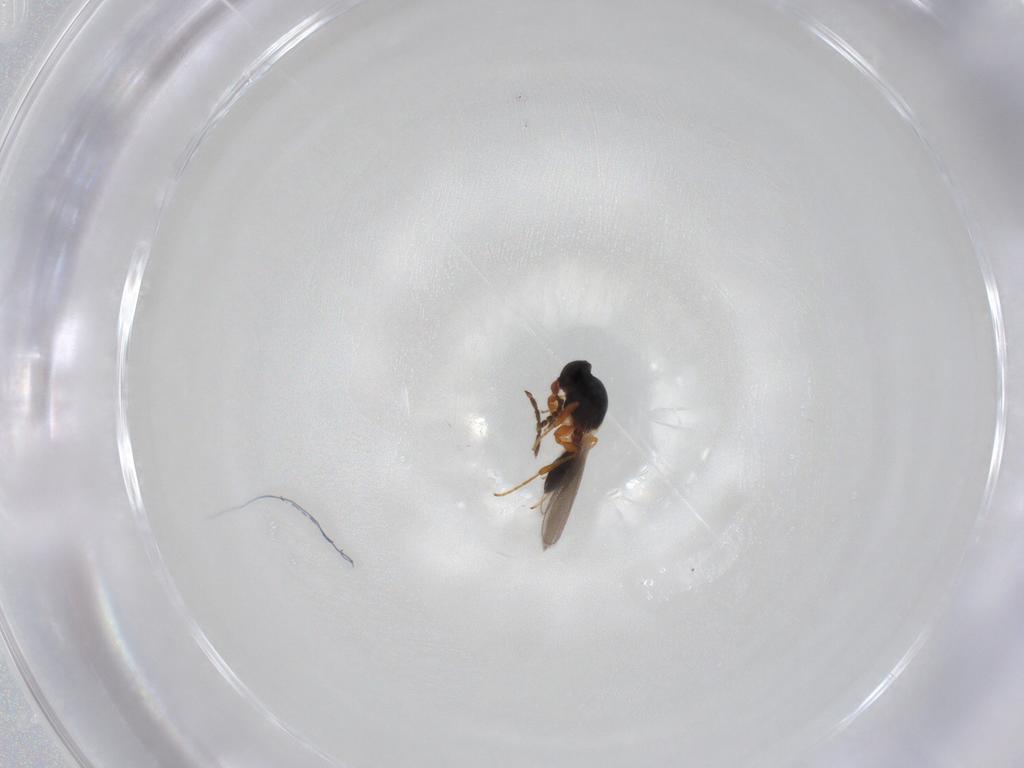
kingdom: Animalia
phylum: Arthropoda
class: Insecta
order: Hymenoptera
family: Eulophidae
